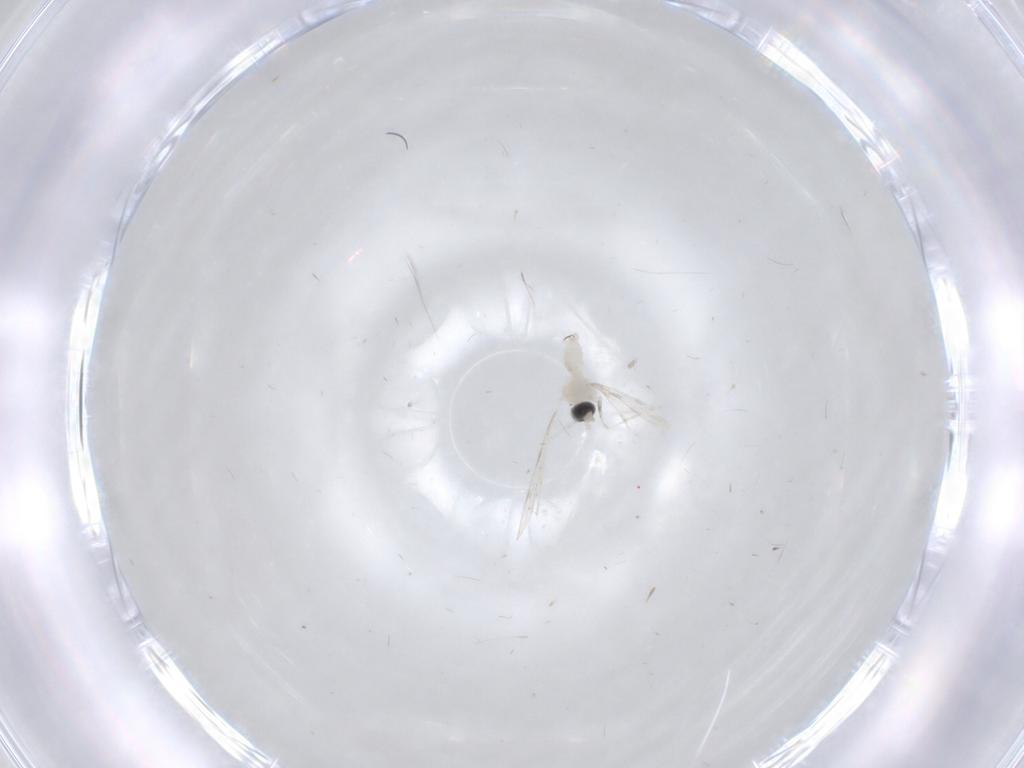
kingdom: Animalia
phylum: Arthropoda
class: Insecta
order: Diptera
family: Cecidomyiidae
